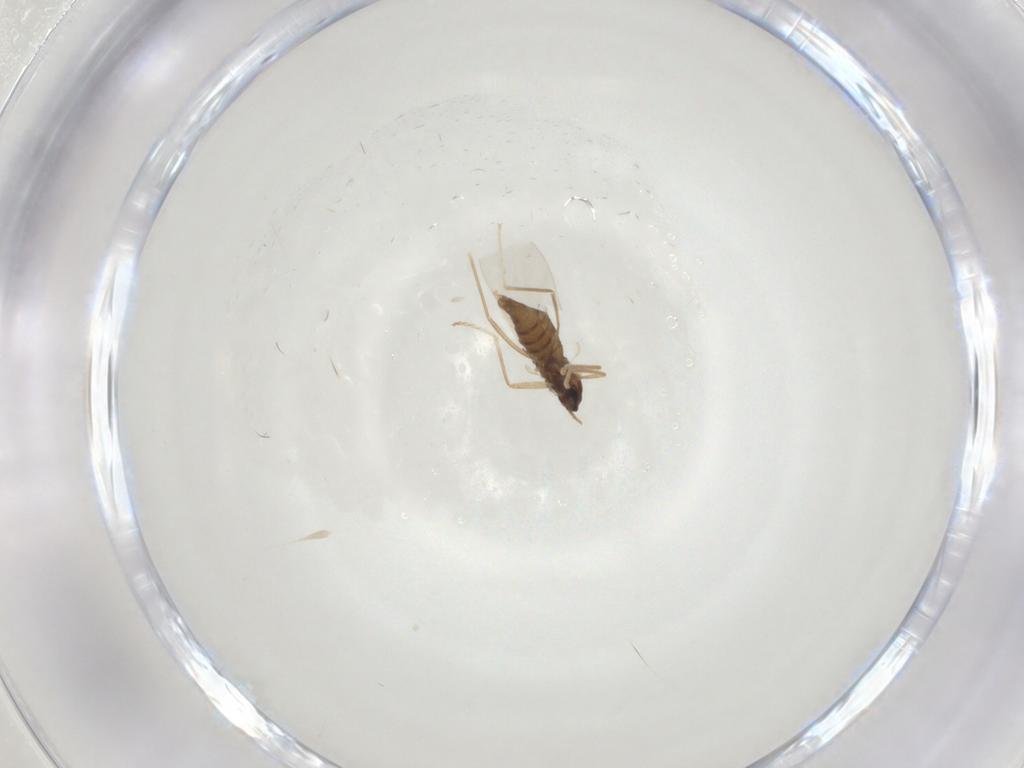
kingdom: Animalia
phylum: Arthropoda
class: Insecta
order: Diptera
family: Cecidomyiidae
